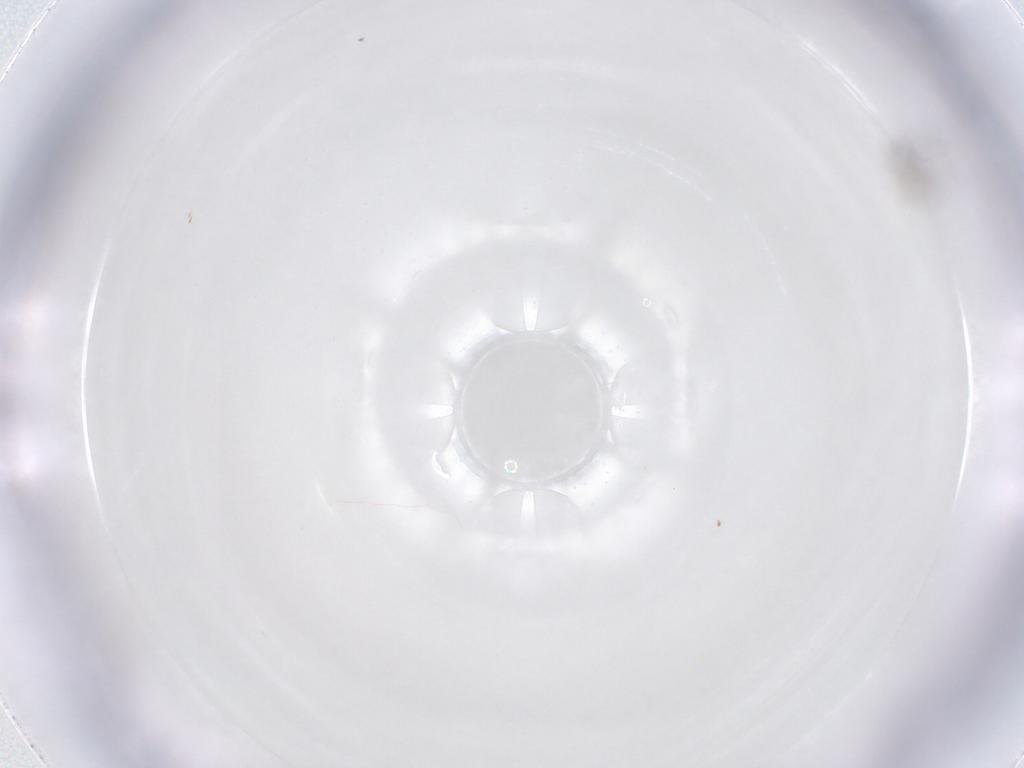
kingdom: Animalia
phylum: Arthropoda
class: Insecta
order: Hymenoptera
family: Mymaridae
